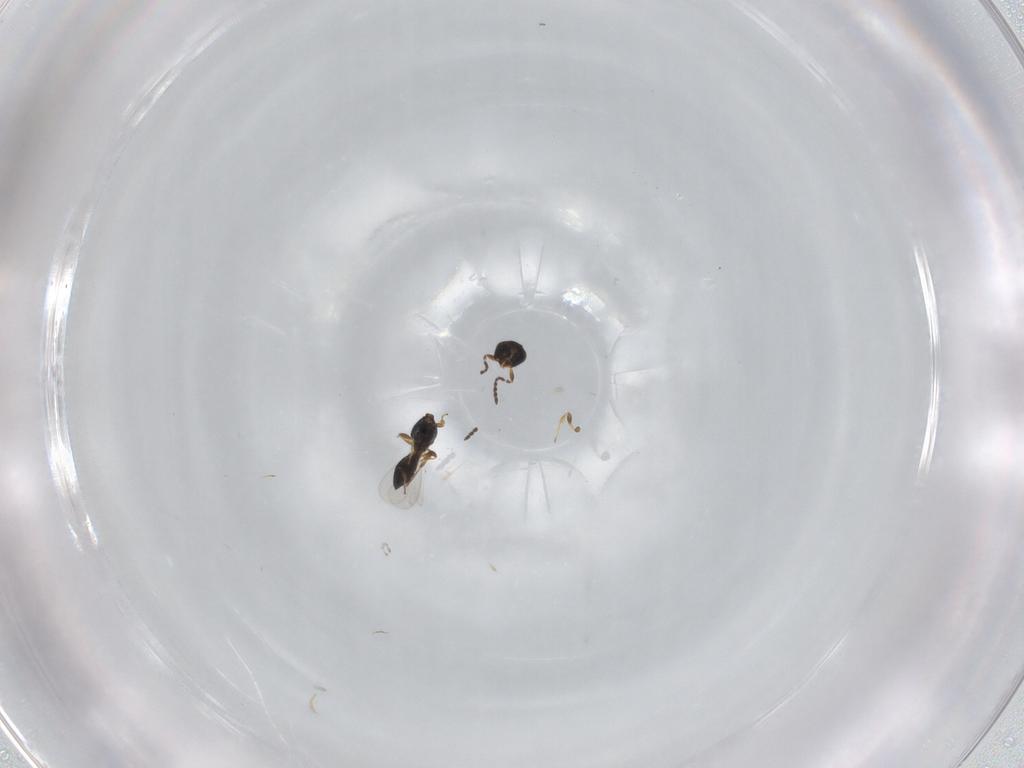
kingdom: Animalia
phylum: Arthropoda
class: Insecta
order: Hymenoptera
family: Platygastridae
